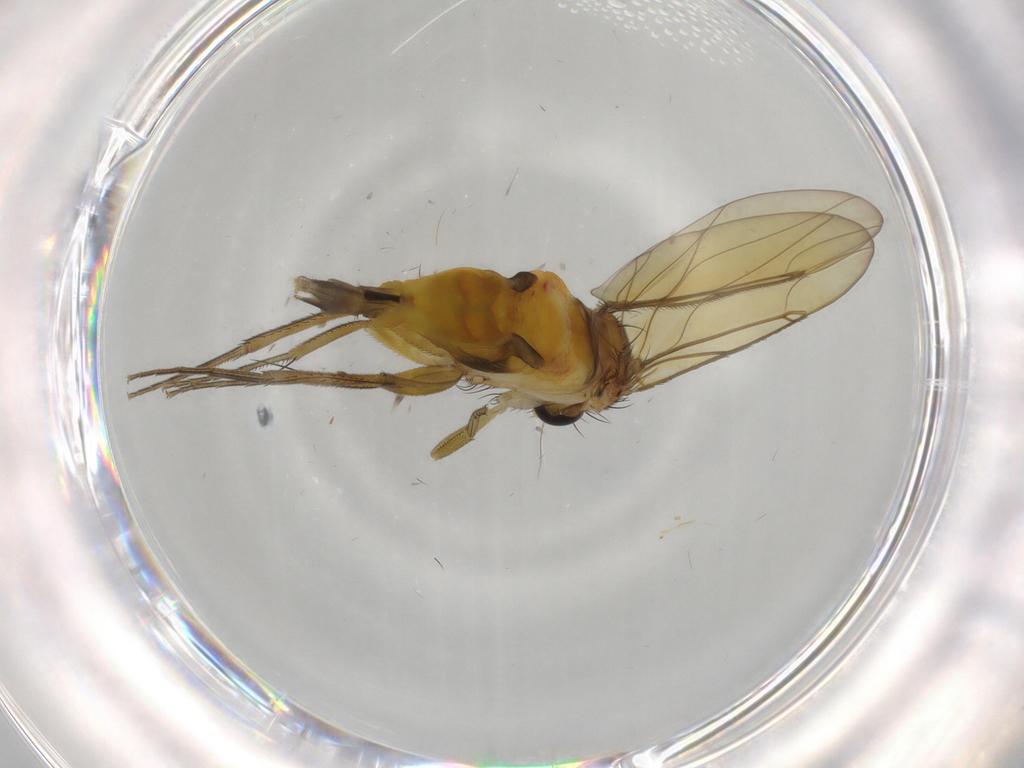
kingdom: Animalia
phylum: Arthropoda
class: Insecta
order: Diptera
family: Phoridae
